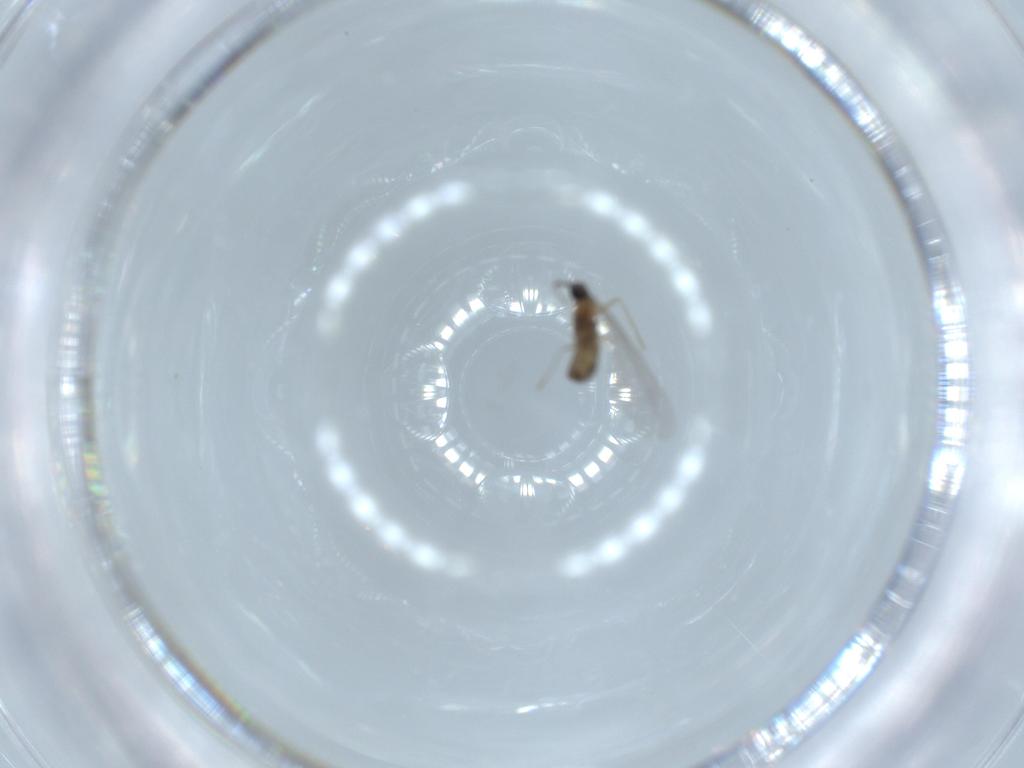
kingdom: Animalia
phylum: Arthropoda
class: Insecta
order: Diptera
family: Cecidomyiidae
